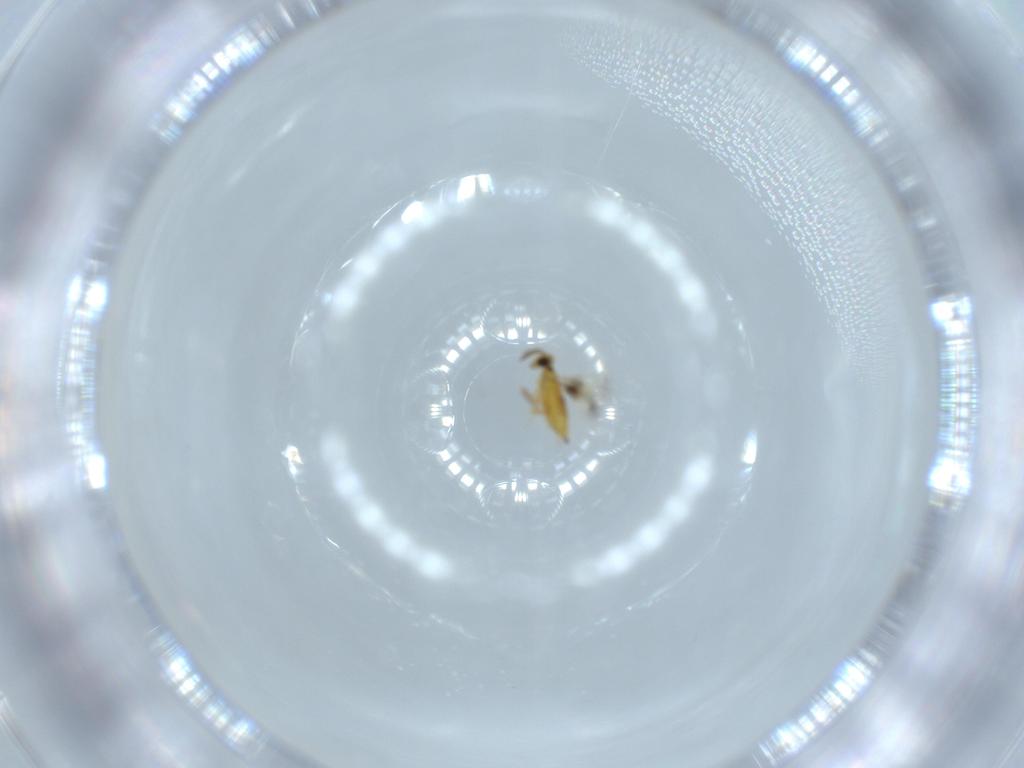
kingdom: Animalia
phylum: Arthropoda
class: Insecta
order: Hymenoptera
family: Signiphoridae
